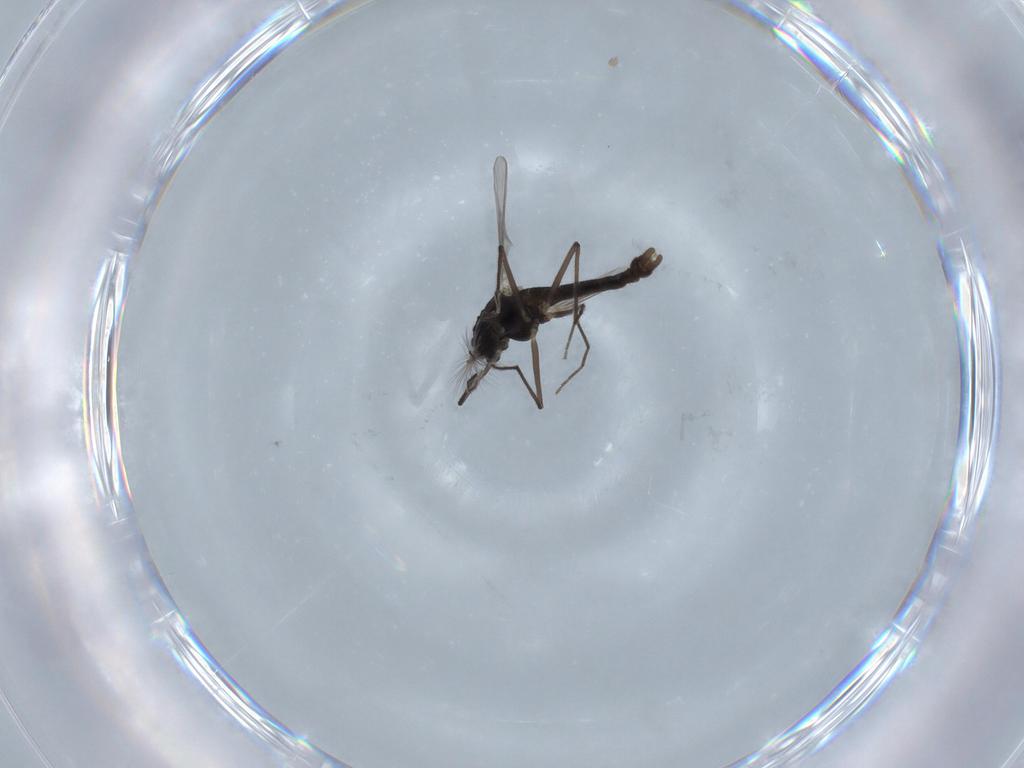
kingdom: Animalia
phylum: Arthropoda
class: Insecta
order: Diptera
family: Chironomidae
